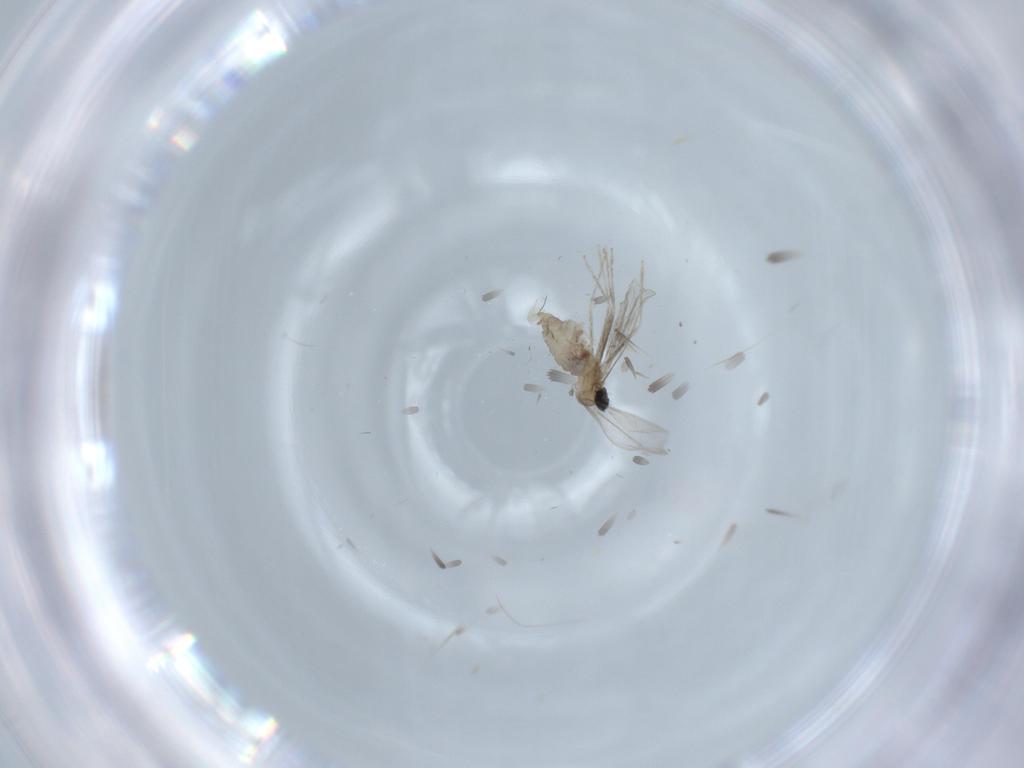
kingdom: Animalia
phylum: Arthropoda
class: Insecta
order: Diptera
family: Cecidomyiidae
